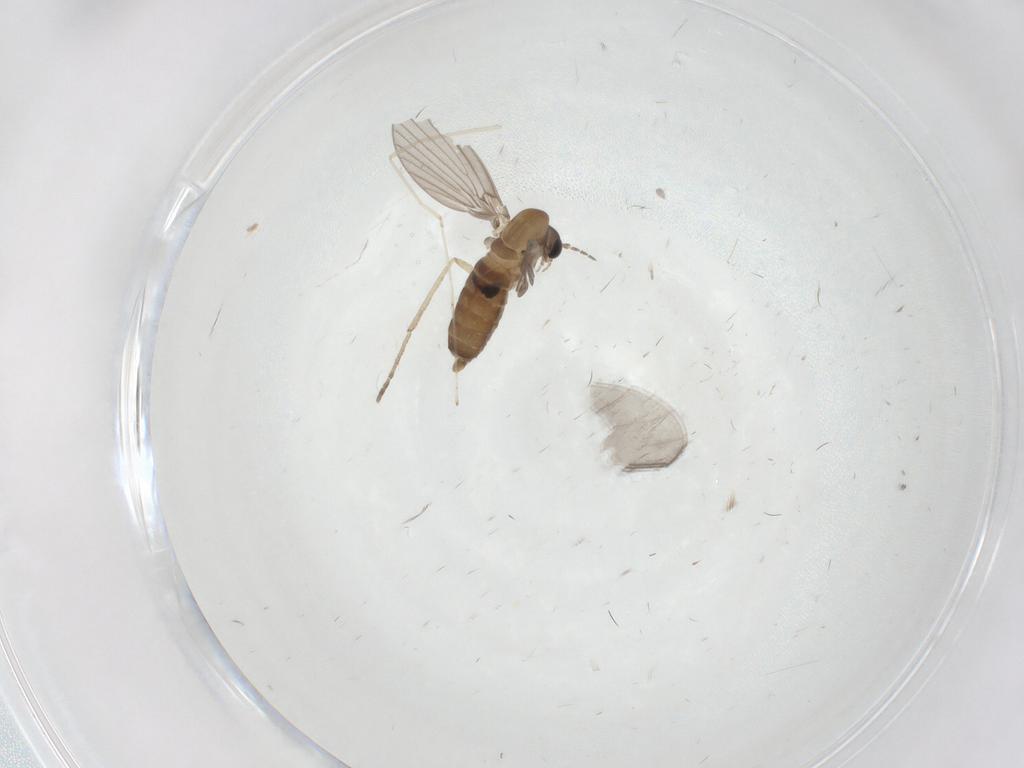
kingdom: Animalia
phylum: Arthropoda
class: Insecta
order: Diptera
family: Cecidomyiidae
